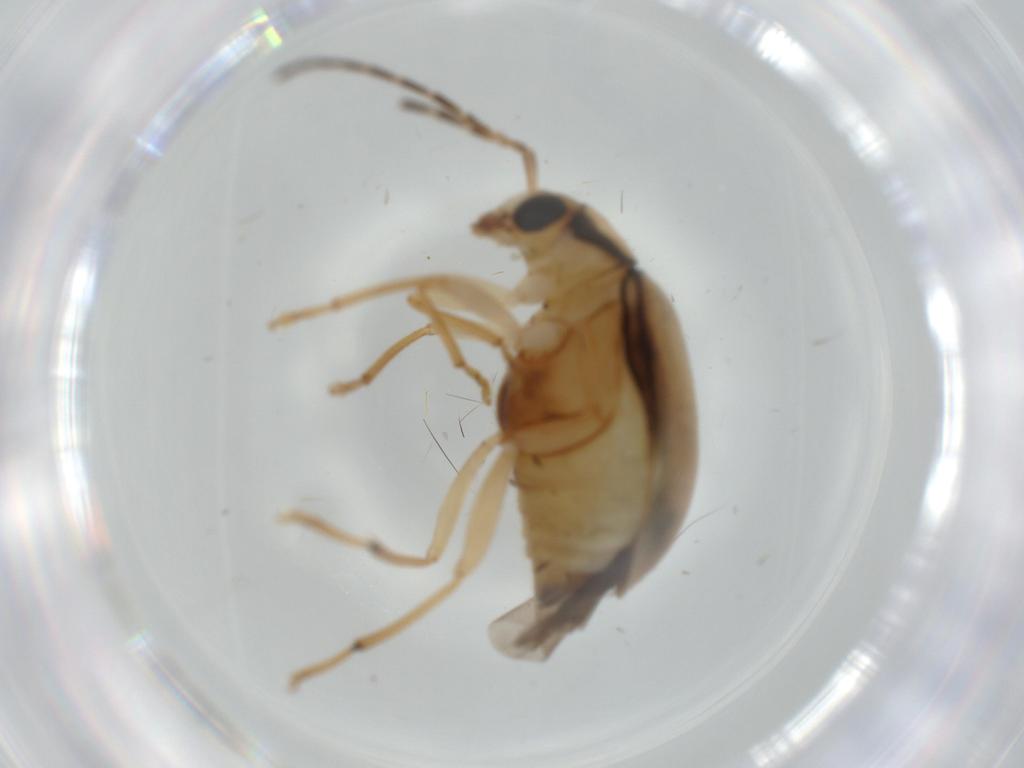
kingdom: Animalia
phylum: Arthropoda
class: Insecta
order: Coleoptera
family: Chrysomelidae
